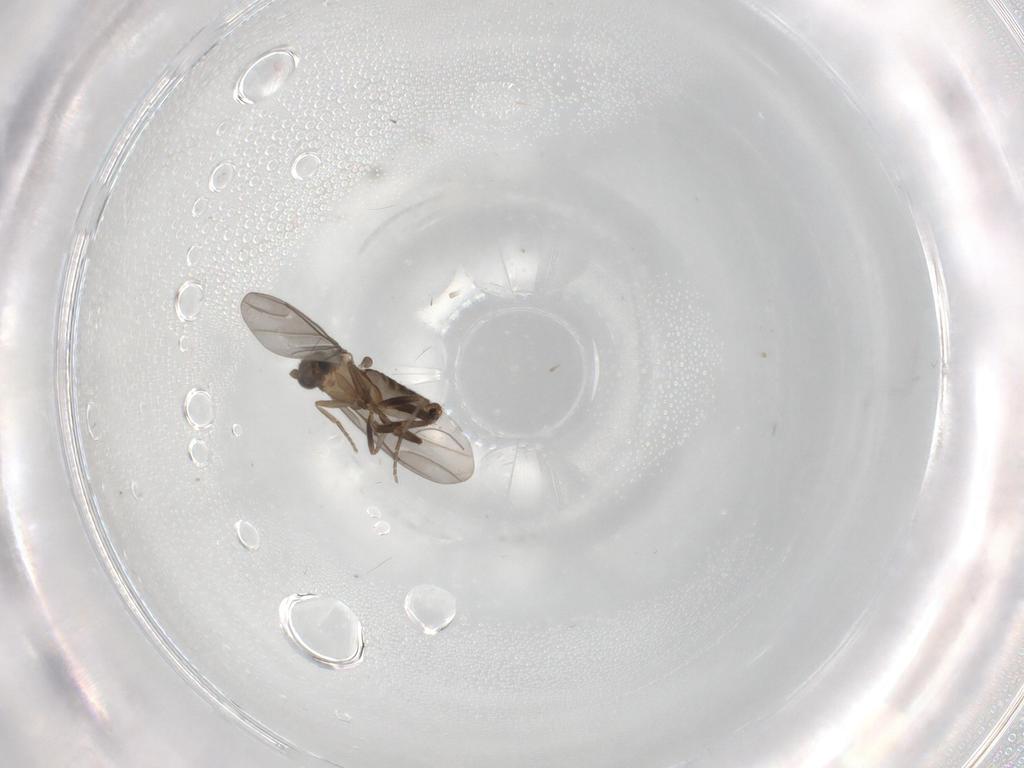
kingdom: Animalia
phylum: Arthropoda
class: Insecta
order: Diptera
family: Phoridae
